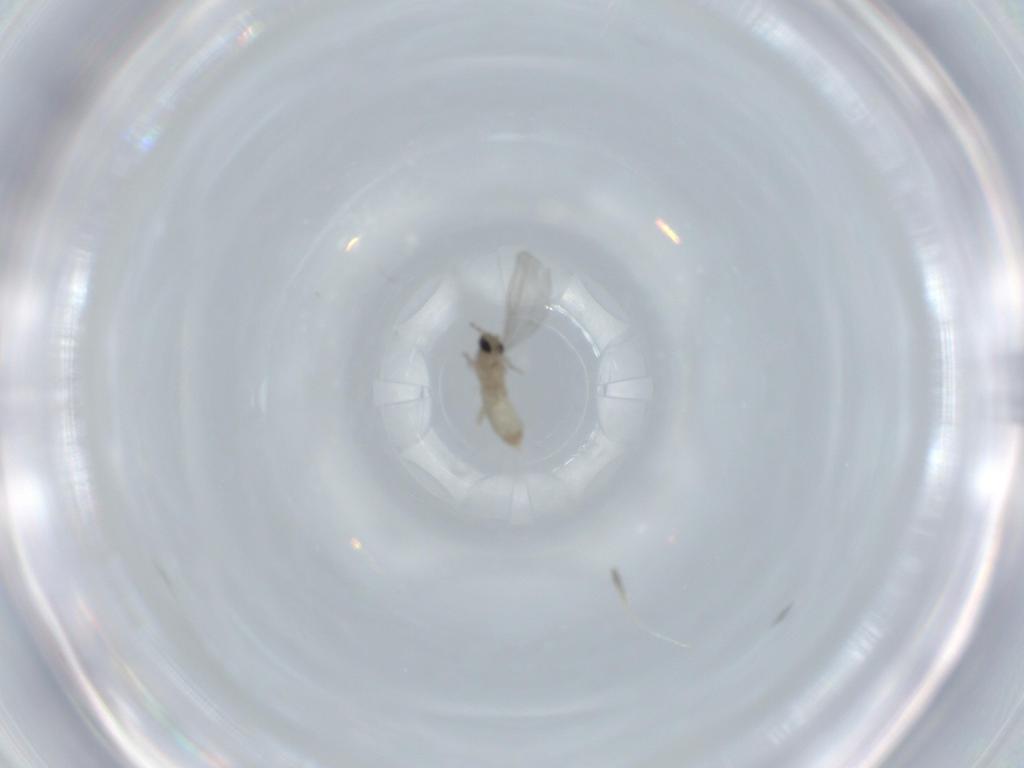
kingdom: Animalia
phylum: Arthropoda
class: Insecta
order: Diptera
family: Cecidomyiidae
